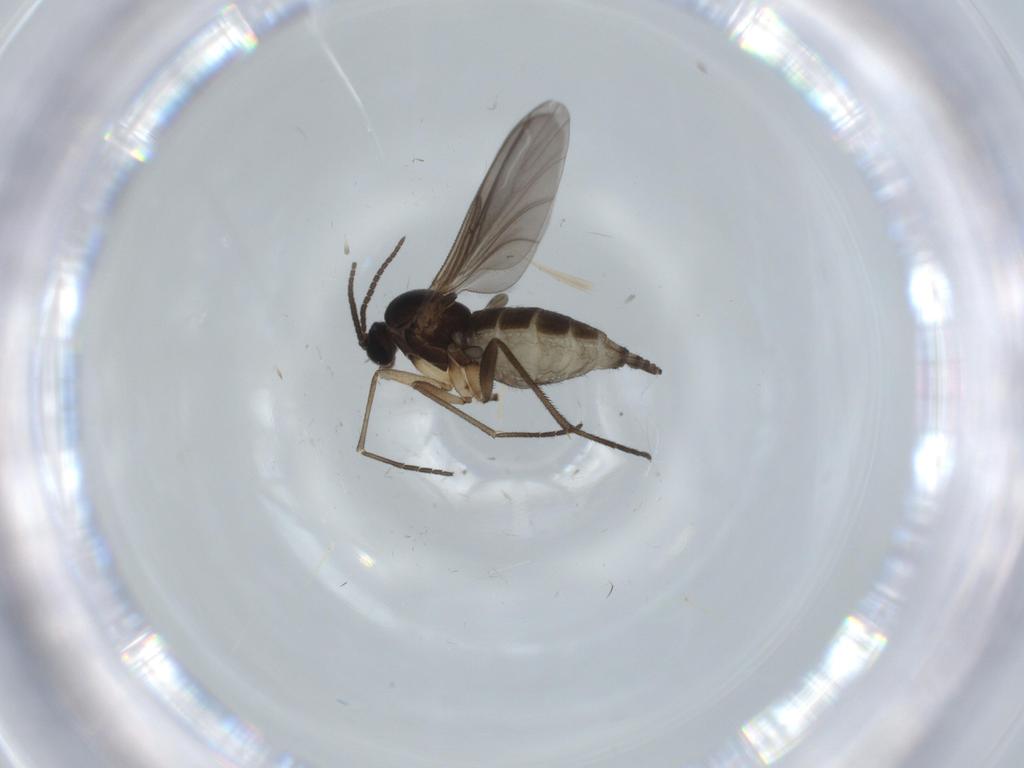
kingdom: Animalia
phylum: Arthropoda
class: Insecta
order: Diptera
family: Sciaridae
